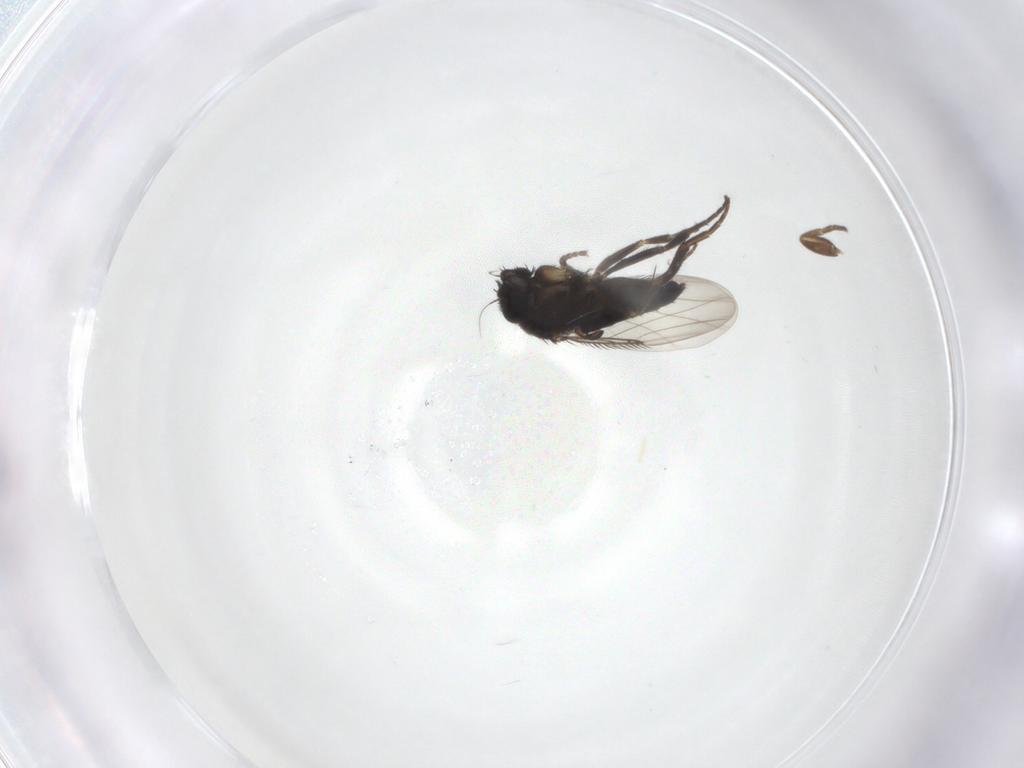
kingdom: Animalia
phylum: Arthropoda
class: Insecta
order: Diptera
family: Phoridae
